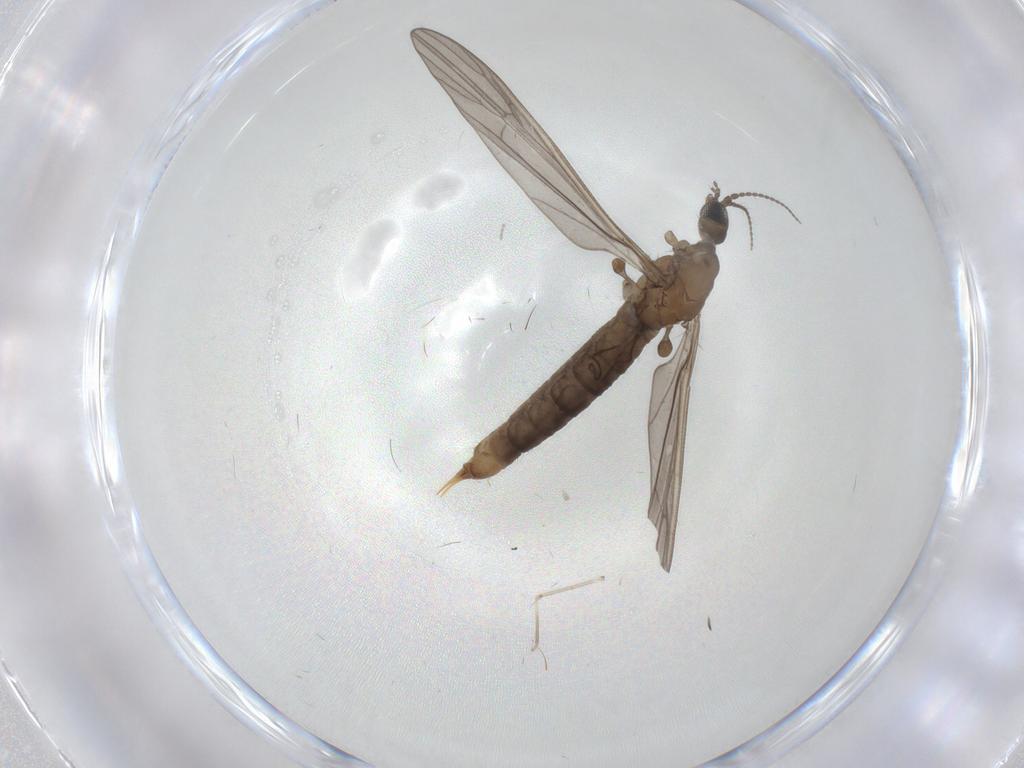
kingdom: Animalia
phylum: Arthropoda
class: Insecta
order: Diptera
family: Limoniidae
